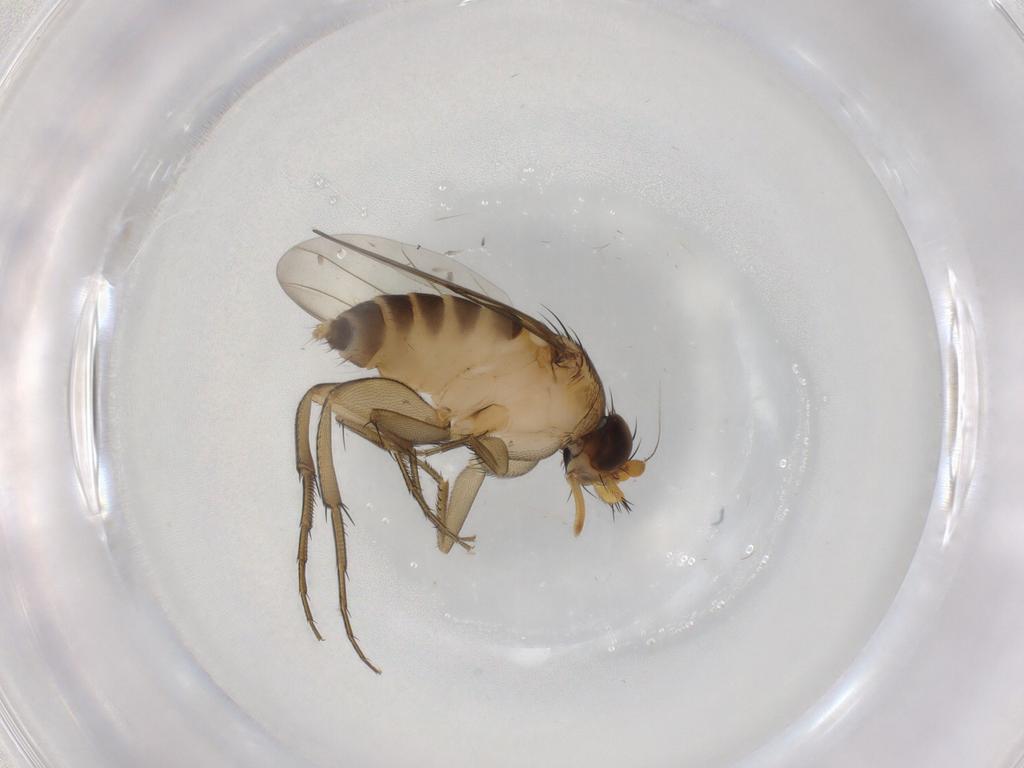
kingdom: Animalia
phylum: Arthropoda
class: Insecta
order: Diptera
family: Phoridae
